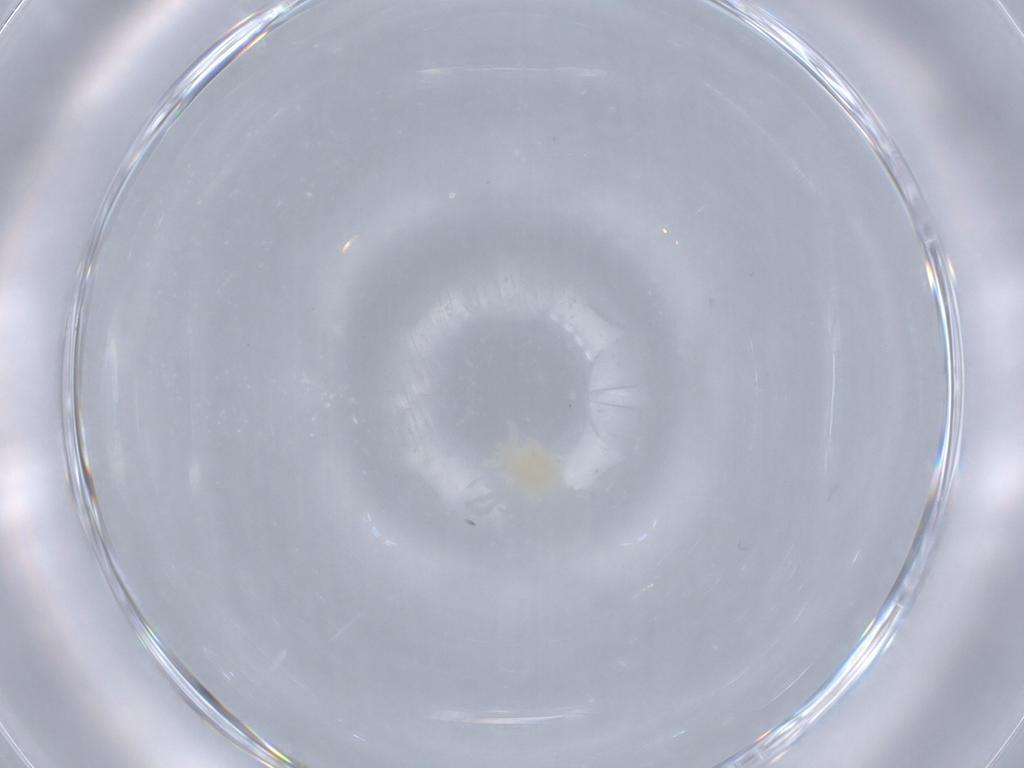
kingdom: Animalia
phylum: Arthropoda
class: Arachnida
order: Trombidiformes
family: Erythraeidae
